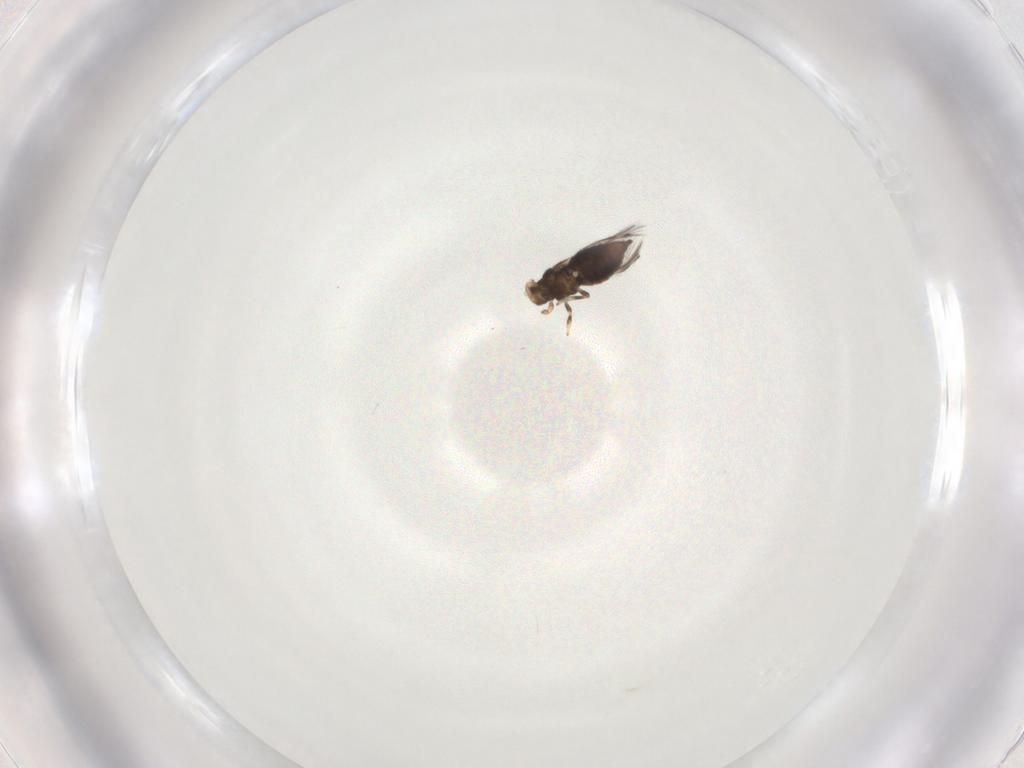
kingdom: Animalia
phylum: Arthropoda
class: Insecta
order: Thysanoptera
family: Thripidae
